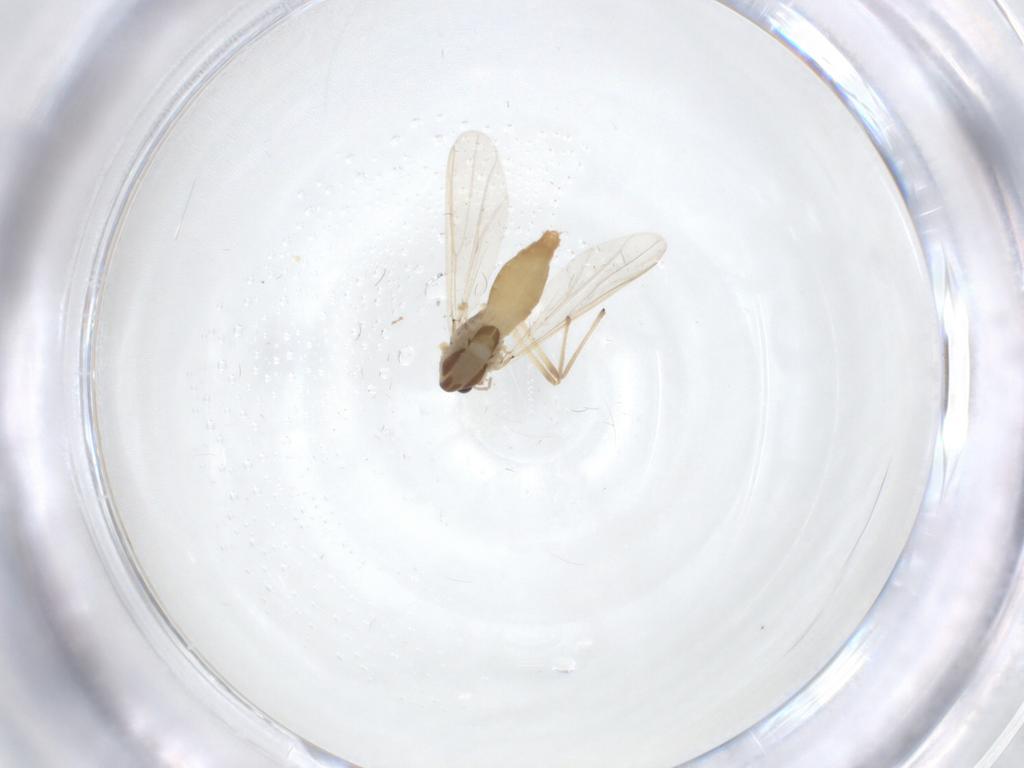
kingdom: Animalia
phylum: Arthropoda
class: Insecta
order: Diptera
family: Chironomidae
